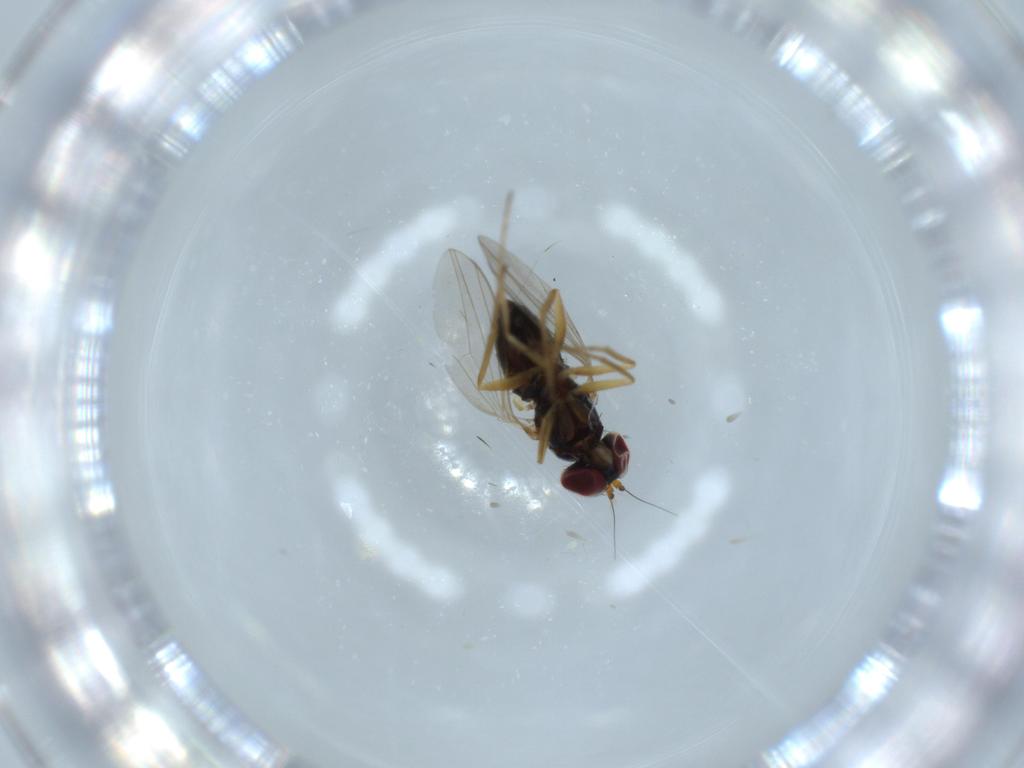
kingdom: Animalia
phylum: Arthropoda
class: Insecta
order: Diptera
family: Dolichopodidae
